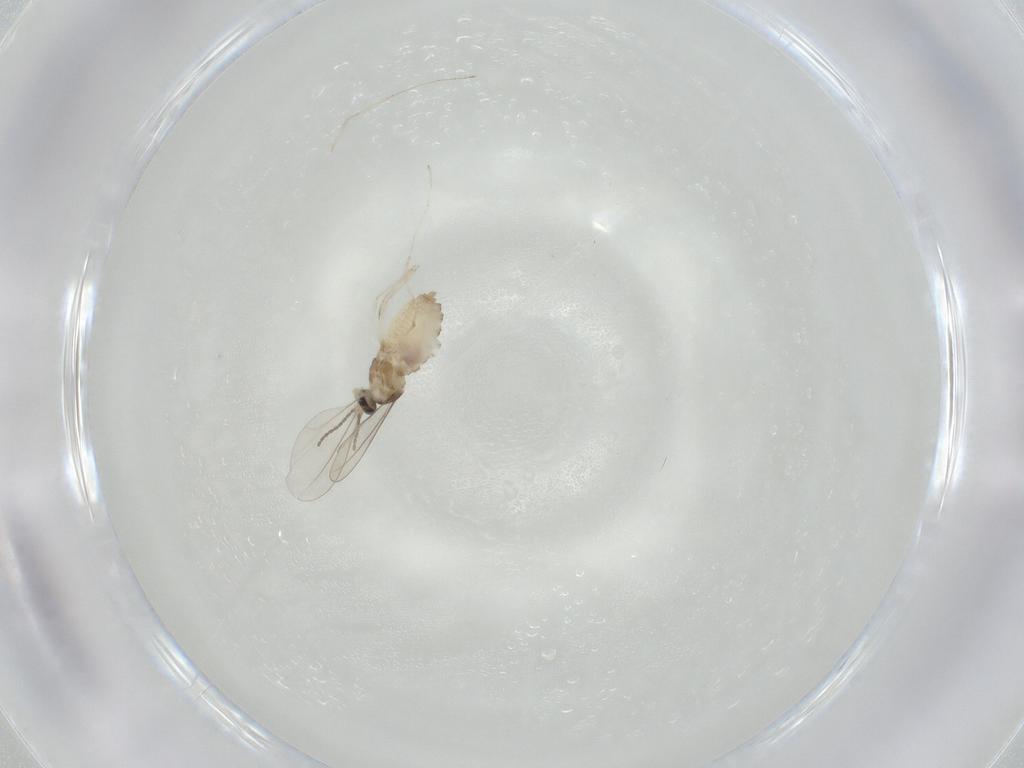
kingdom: Animalia
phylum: Arthropoda
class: Insecta
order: Diptera
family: Cecidomyiidae
